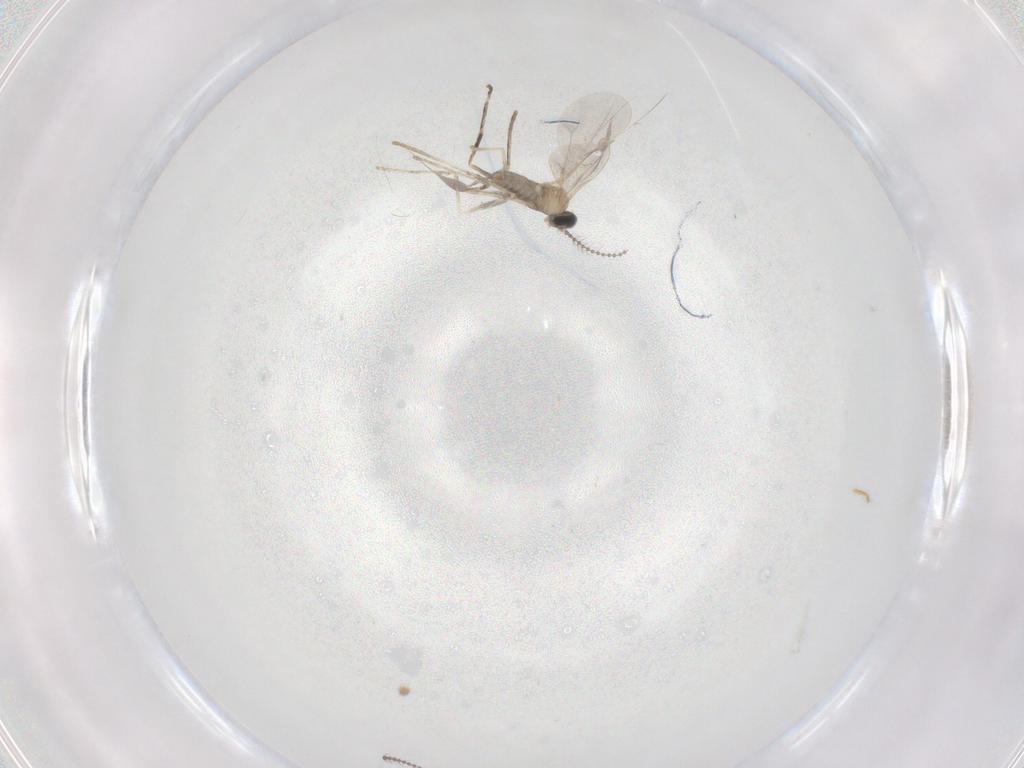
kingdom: Animalia
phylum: Arthropoda
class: Insecta
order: Diptera
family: Cecidomyiidae
